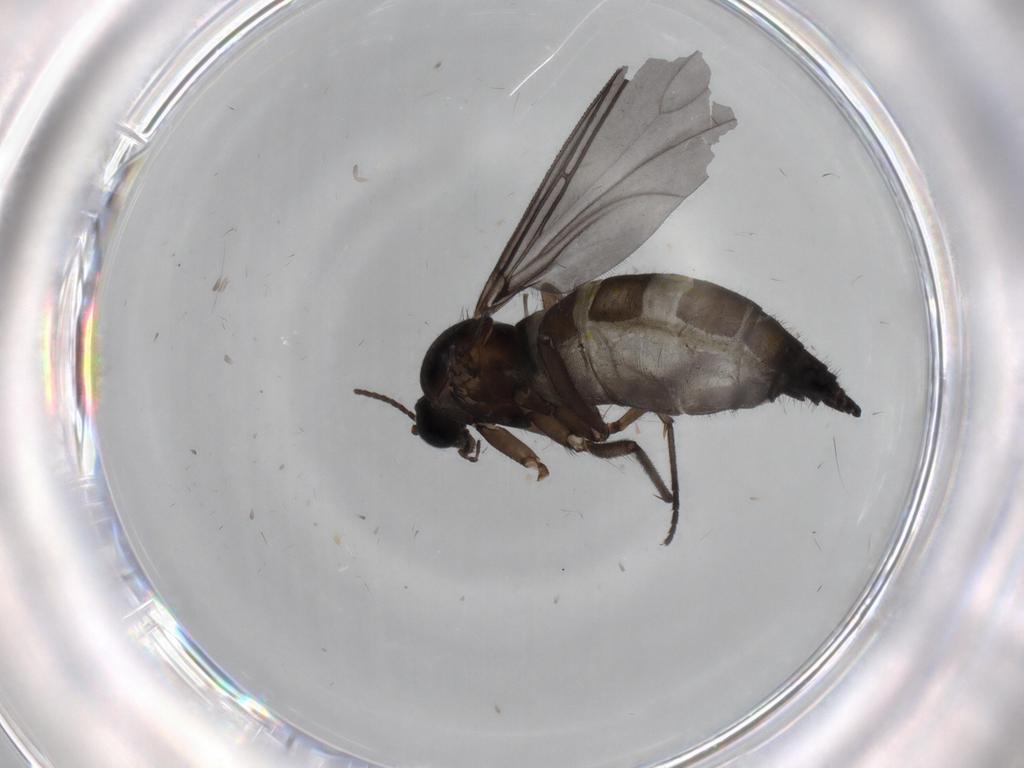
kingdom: Animalia
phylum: Arthropoda
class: Insecta
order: Diptera
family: Sciaridae
